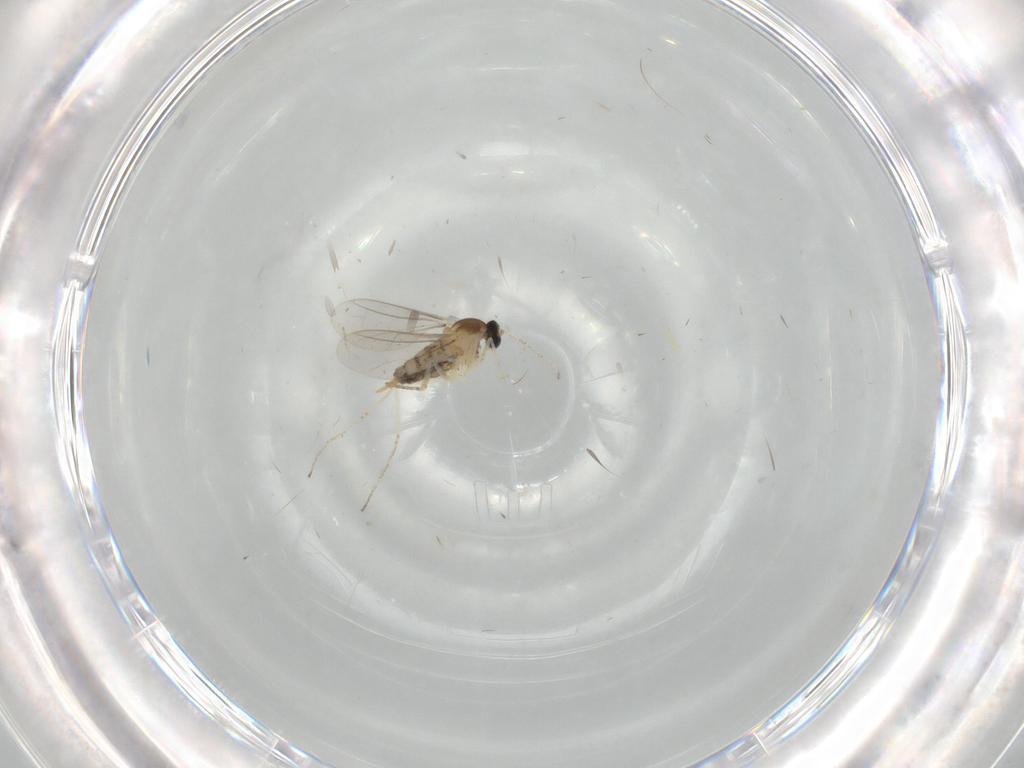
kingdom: Animalia
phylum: Arthropoda
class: Insecta
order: Diptera
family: Cecidomyiidae
